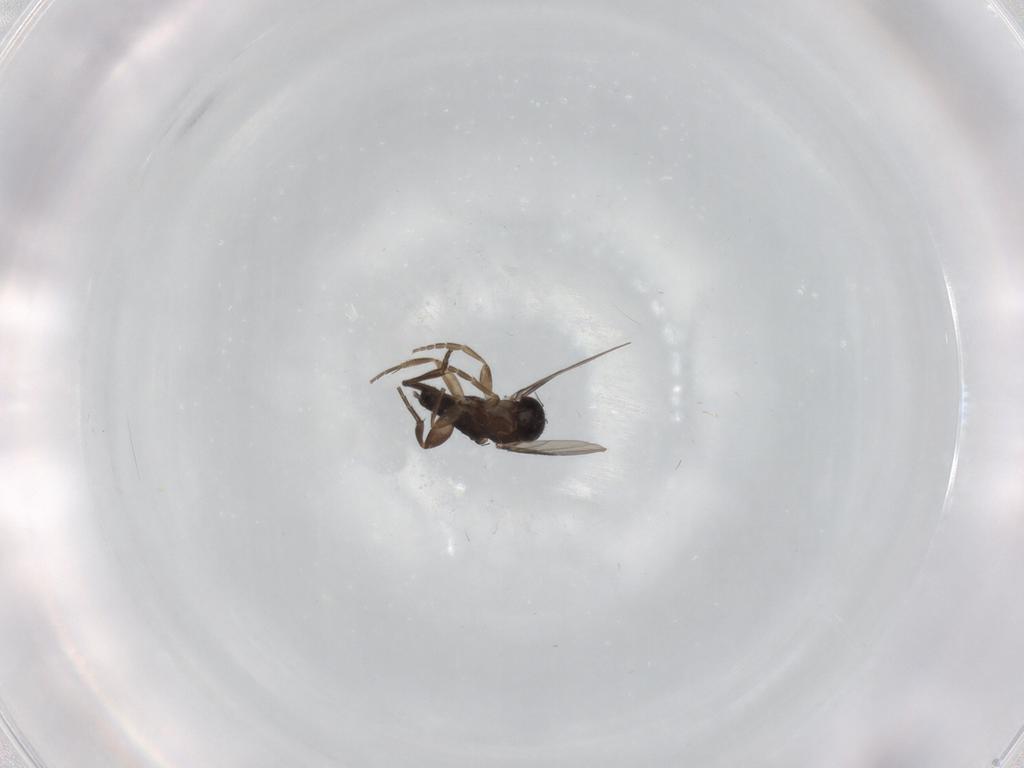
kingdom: Animalia
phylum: Arthropoda
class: Insecta
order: Diptera
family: Phoridae
